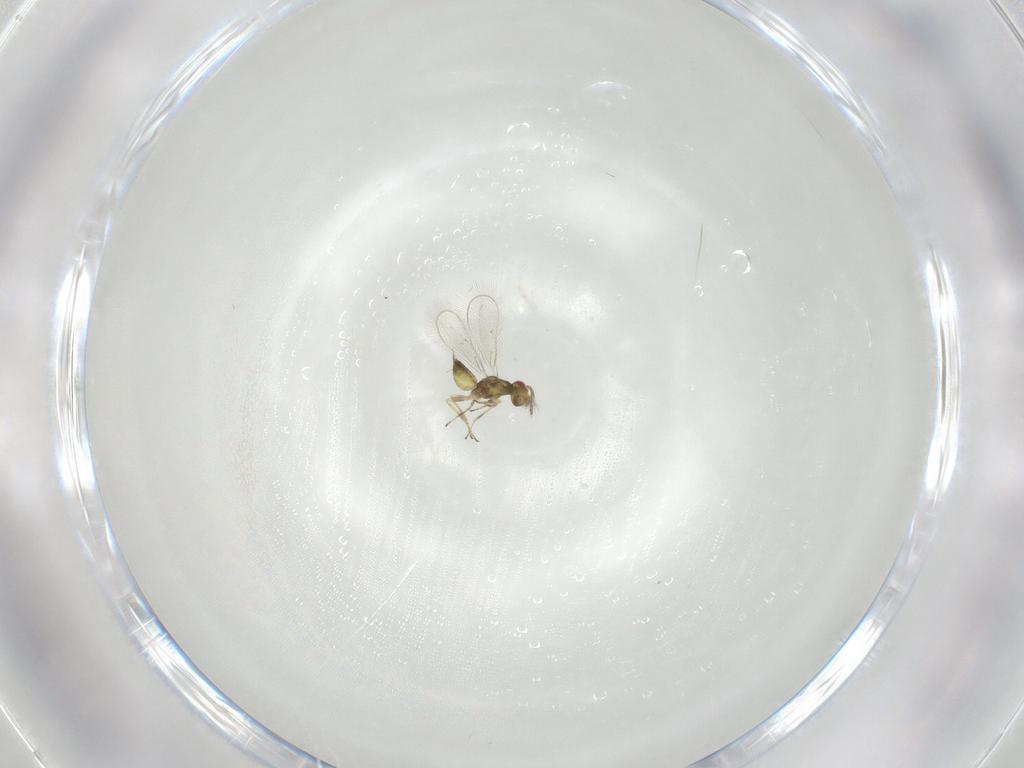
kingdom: Animalia
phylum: Arthropoda
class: Insecta
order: Hymenoptera
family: Eulophidae
